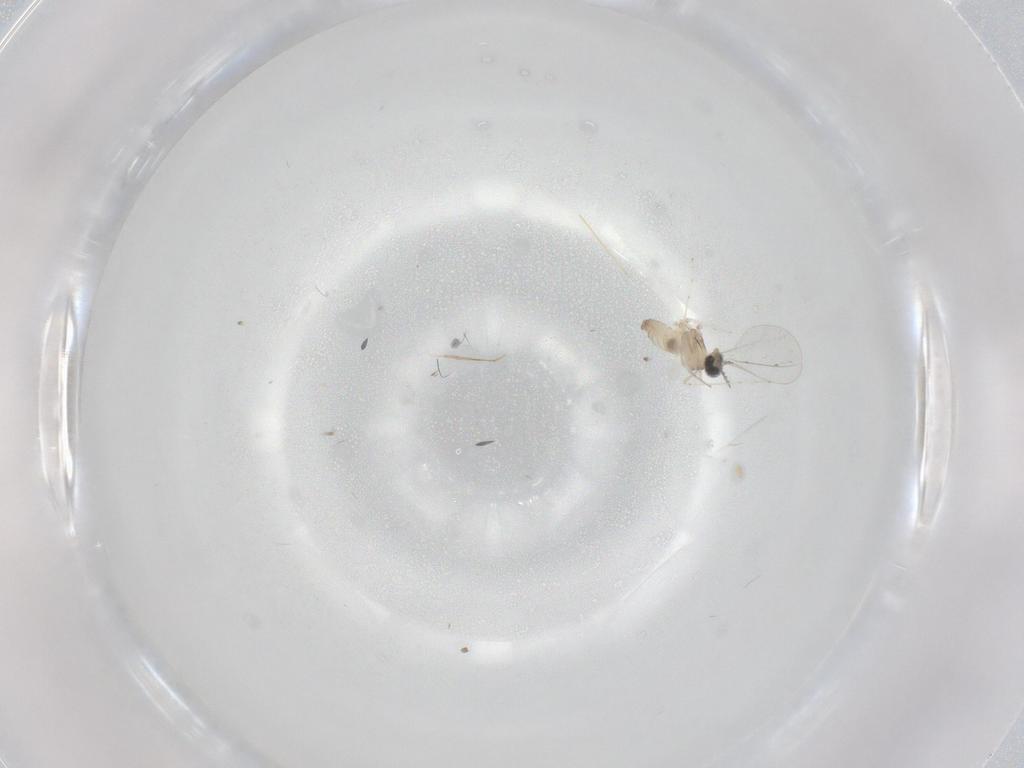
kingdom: Animalia
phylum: Arthropoda
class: Insecta
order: Diptera
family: Cecidomyiidae
